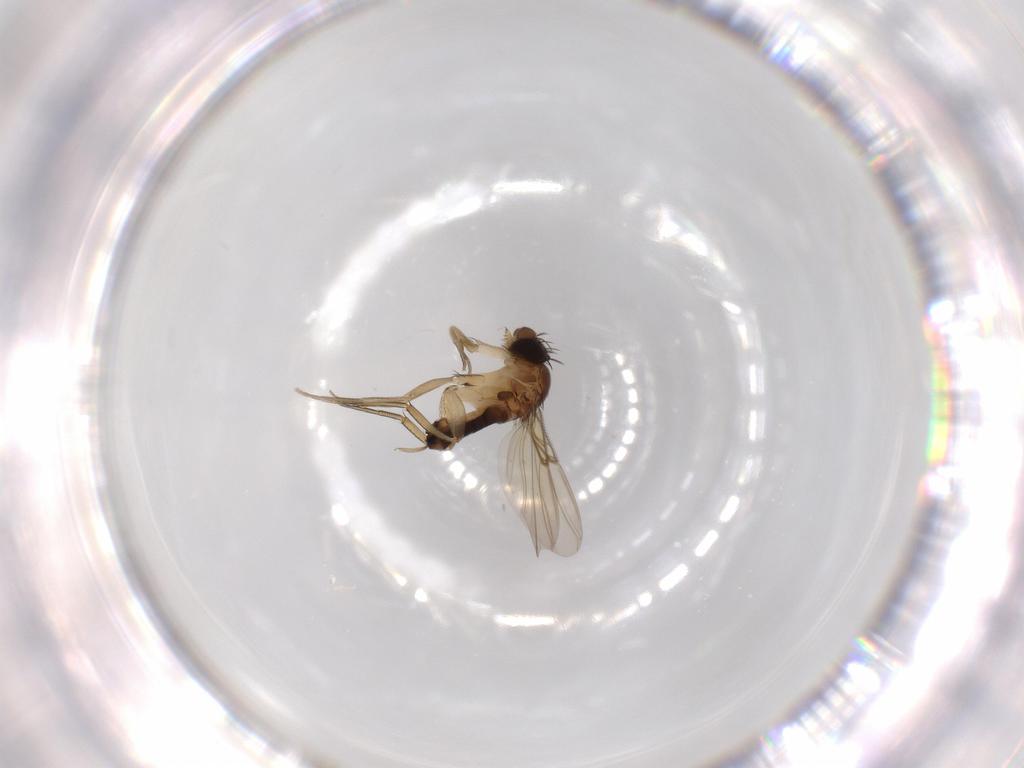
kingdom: Animalia
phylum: Arthropoda
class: Insecta
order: Diptera
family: Phoridae
